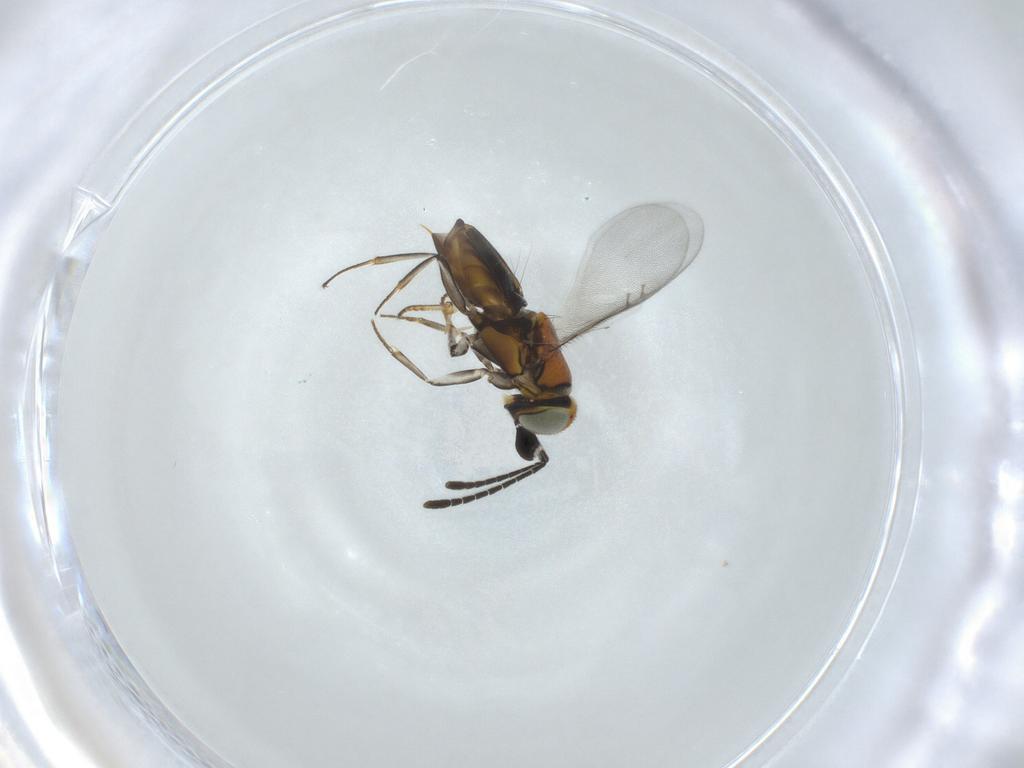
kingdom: Animalia
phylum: Arthropoda
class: Insecta
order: Hymenoptera
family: Encyrtidae
